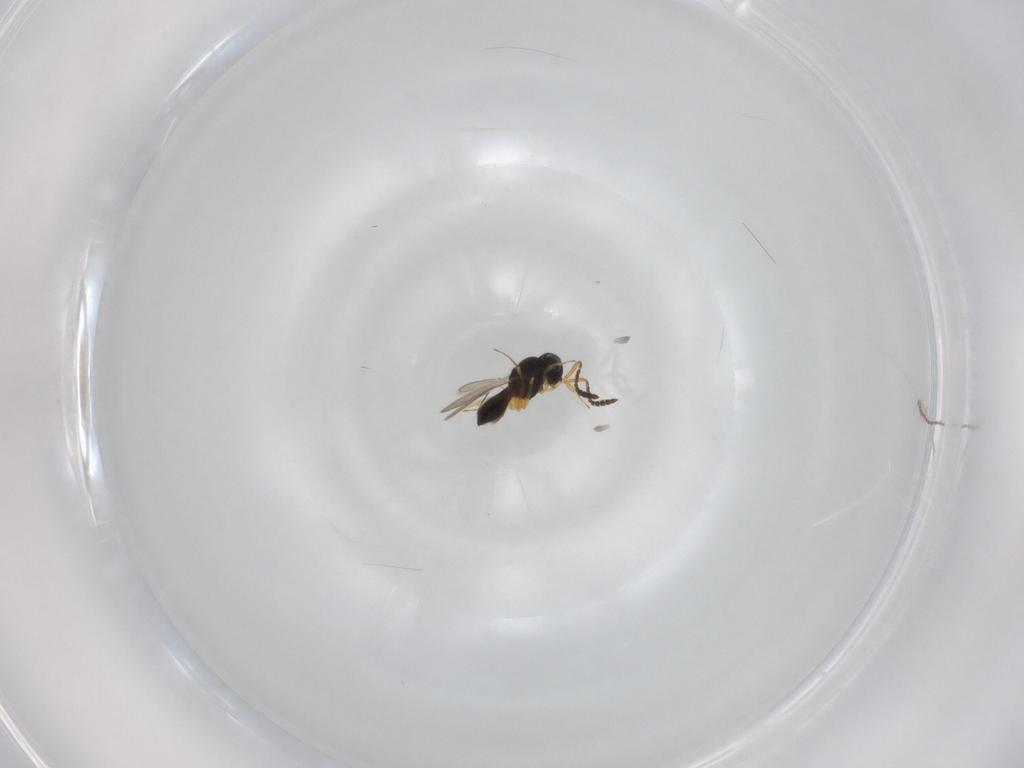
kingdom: Animalia
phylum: Arthropoda
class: Insecta
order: Hymenoptera
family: Scelionidae
